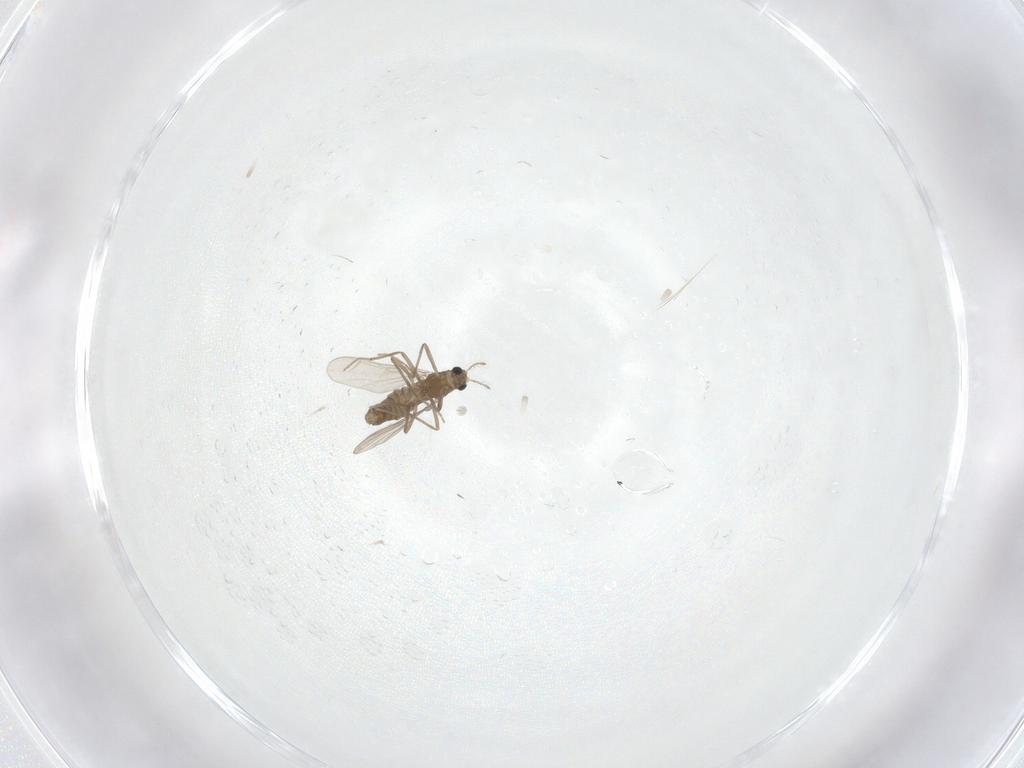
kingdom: Animalia
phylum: Arthropoda
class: Insecta
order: Diptera
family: Chironomidae
